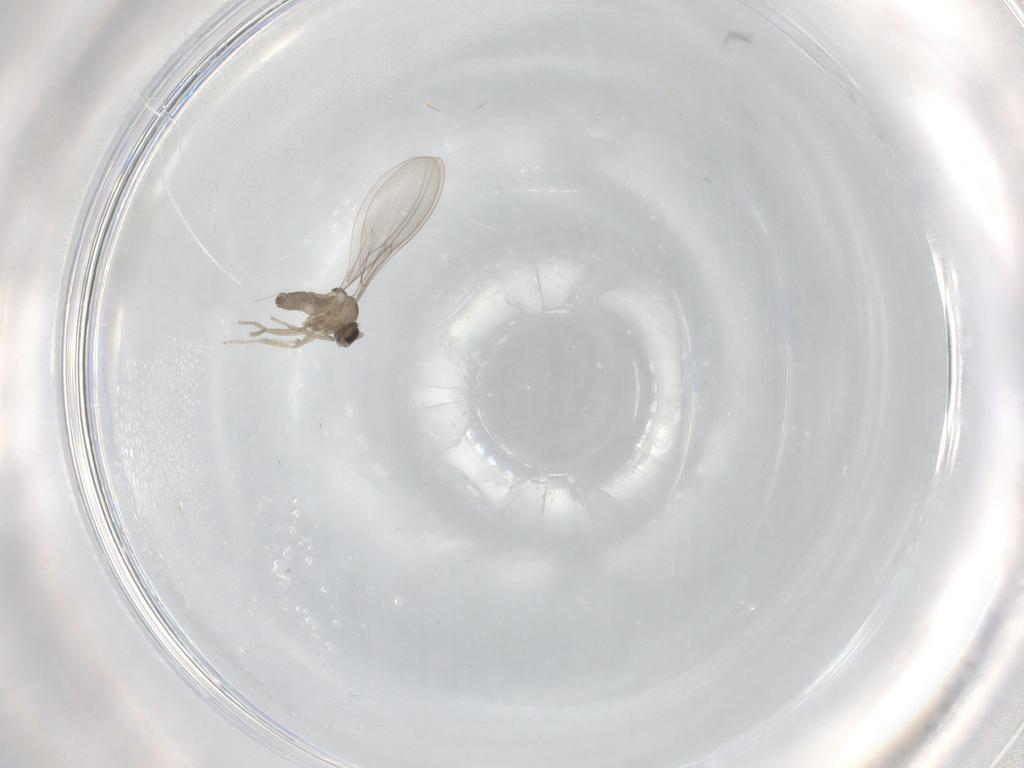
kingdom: Animalia
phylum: Arthropoda
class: Insecta
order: Diptera
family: Cecidomyiidae
